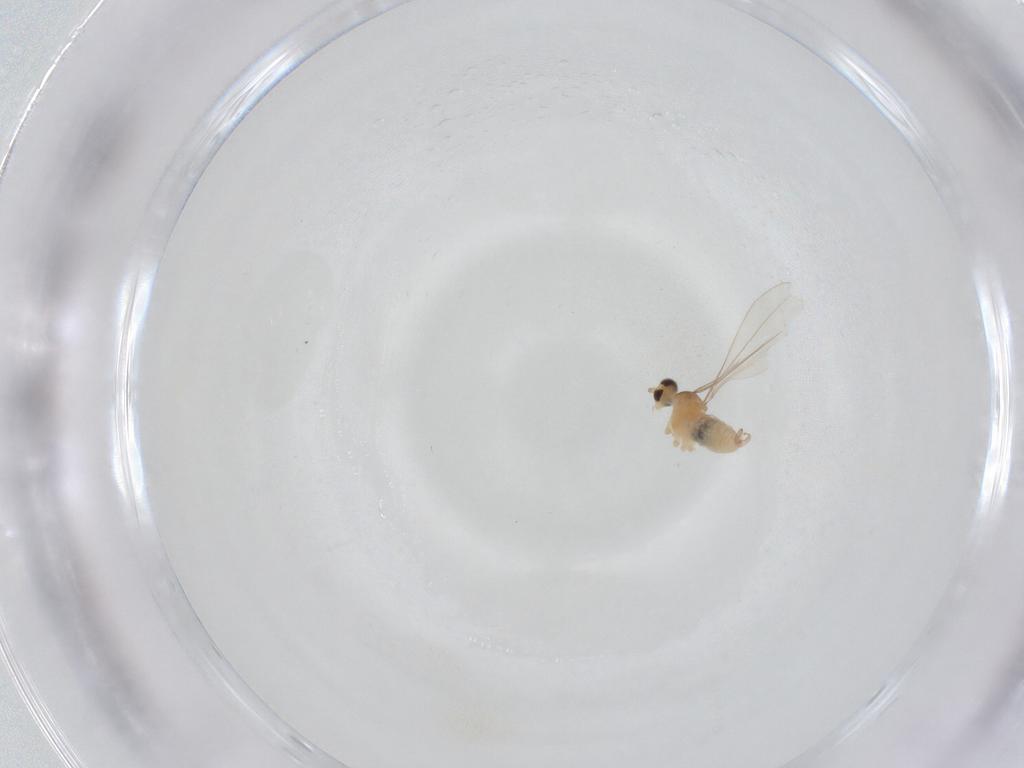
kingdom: Animalia
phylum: Arthropoda
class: Insecta
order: Diptera
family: Cecidomyiidae
